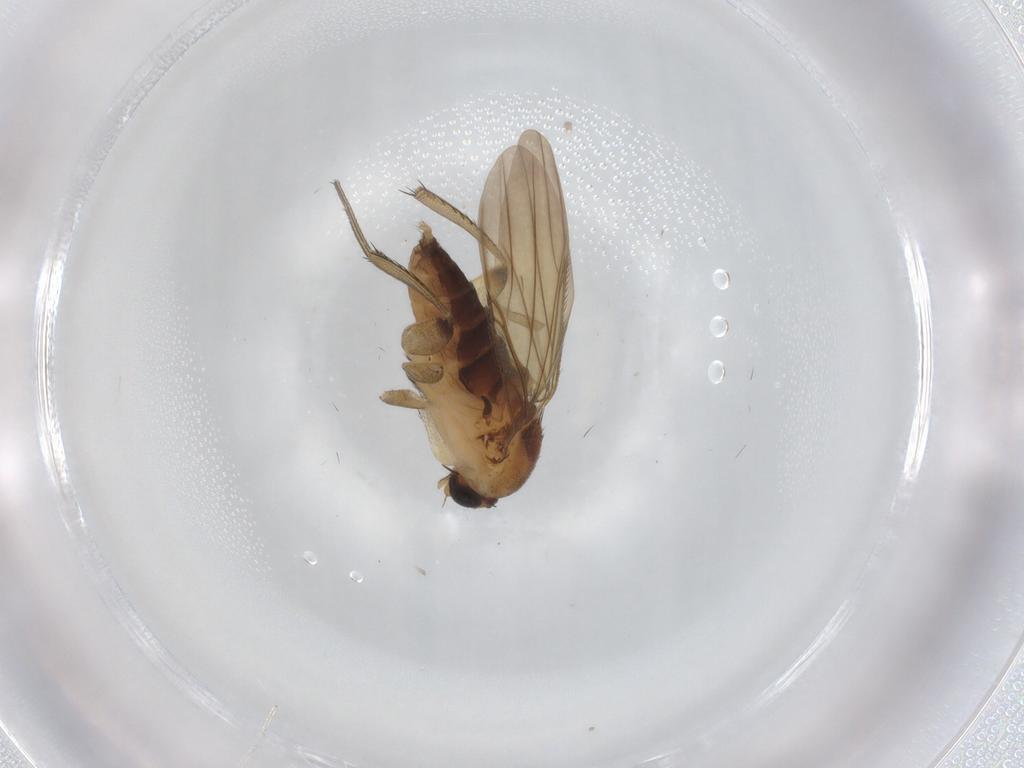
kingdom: Animalia
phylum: Arthropoda
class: Insecta
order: Diptera
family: Phoridae
